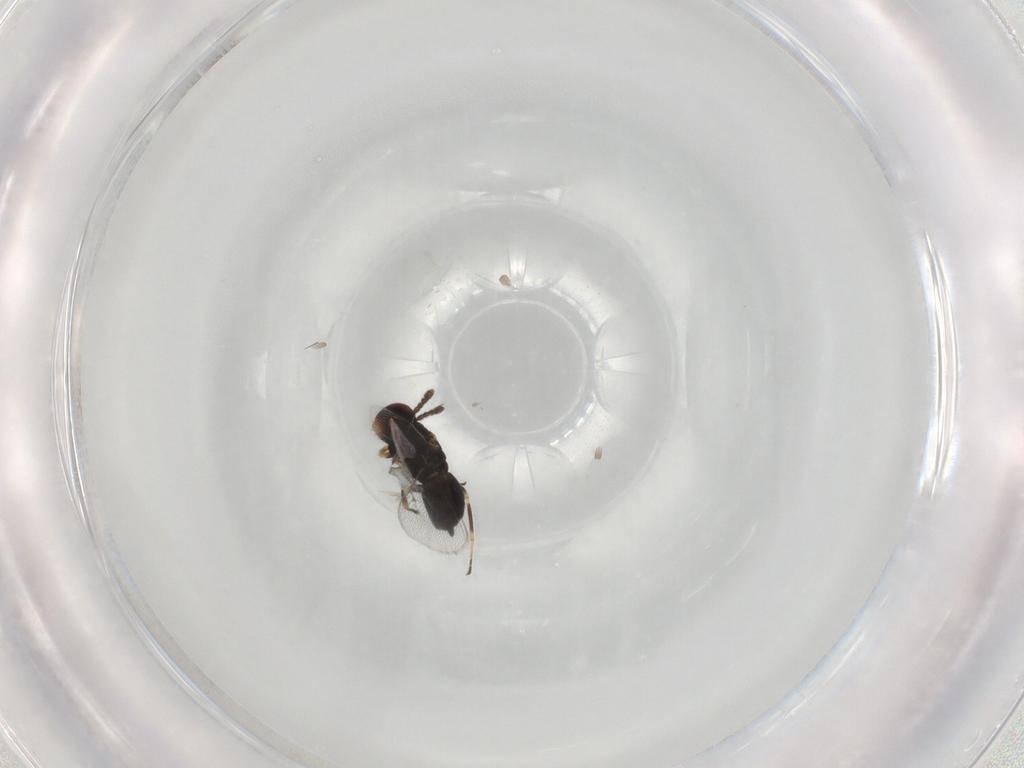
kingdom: Animalia
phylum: Arthropoda
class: Insecta
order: Hymenoptera
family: Eulophidae
